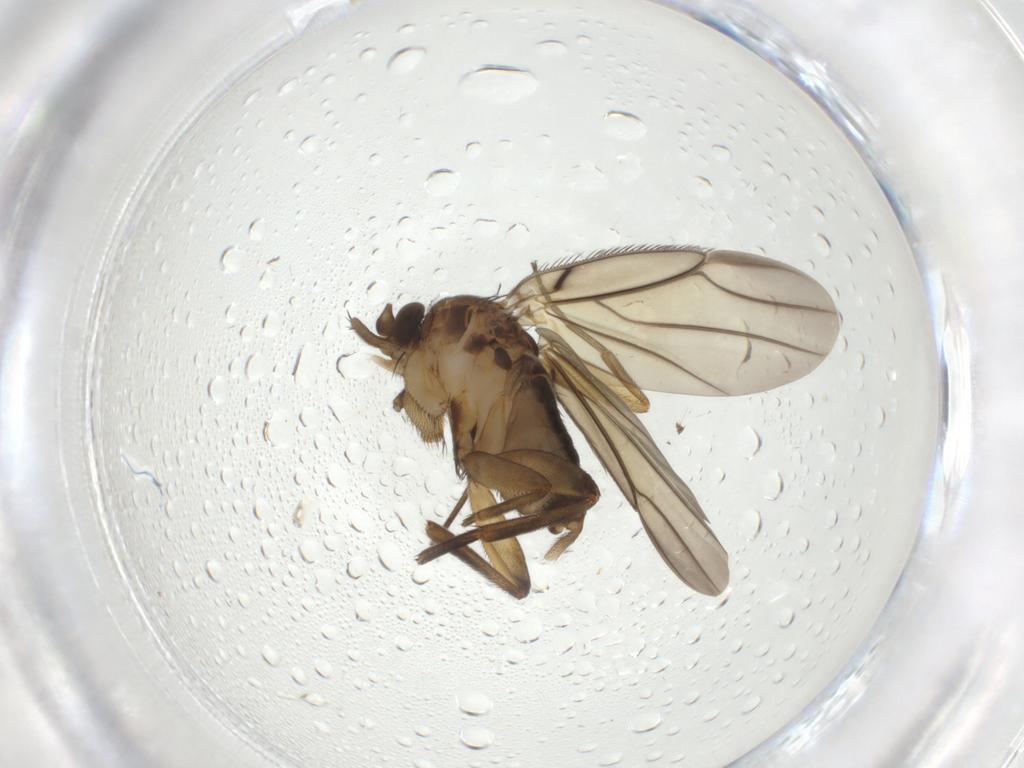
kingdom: Animalia
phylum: Arthropoda
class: Insecta
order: Diptera
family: Phoridae
